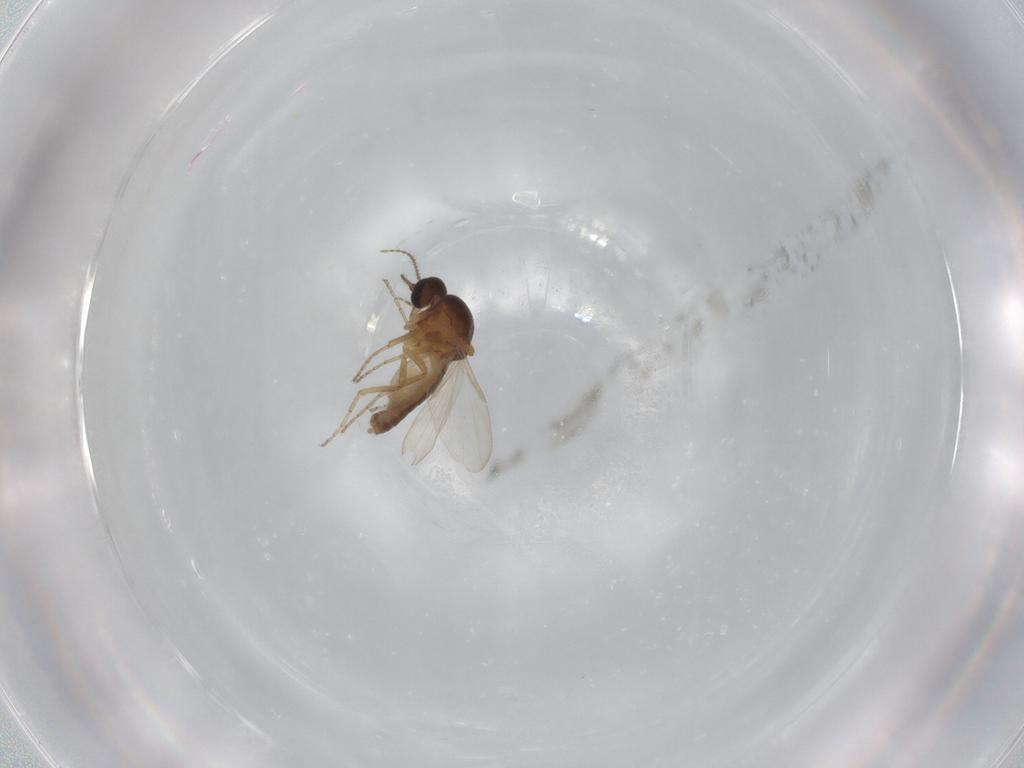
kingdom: Animalia
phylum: Arthropoda
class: Insecta
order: Diptera
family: Ceratopogonidae
